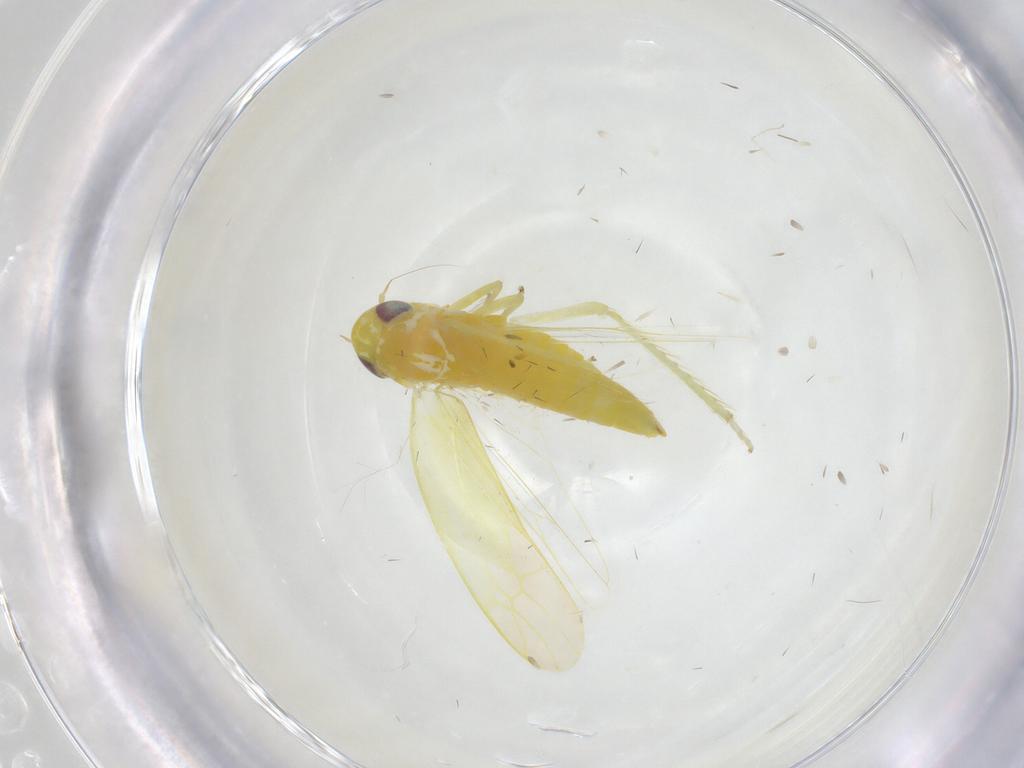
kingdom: Animalia
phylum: Arthropoda
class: Insecta
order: Hemiptera
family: Cicadellidae
